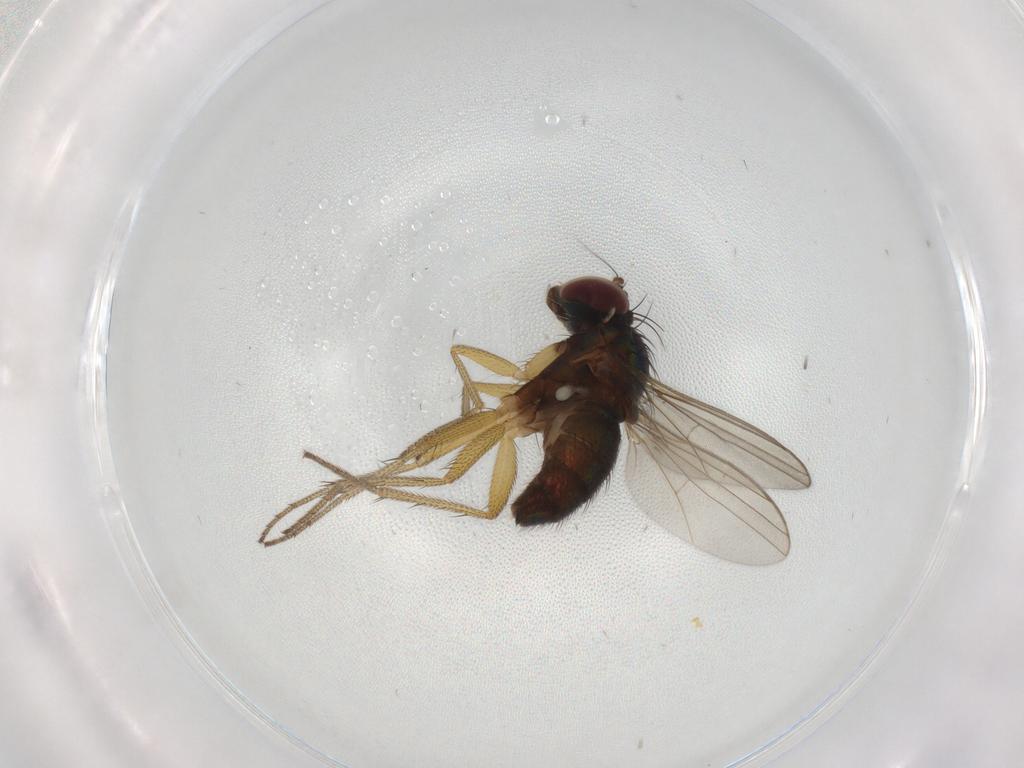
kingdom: Animalia
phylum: Arthropoda
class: Insecta
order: Diptera
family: Dolichopodidae
